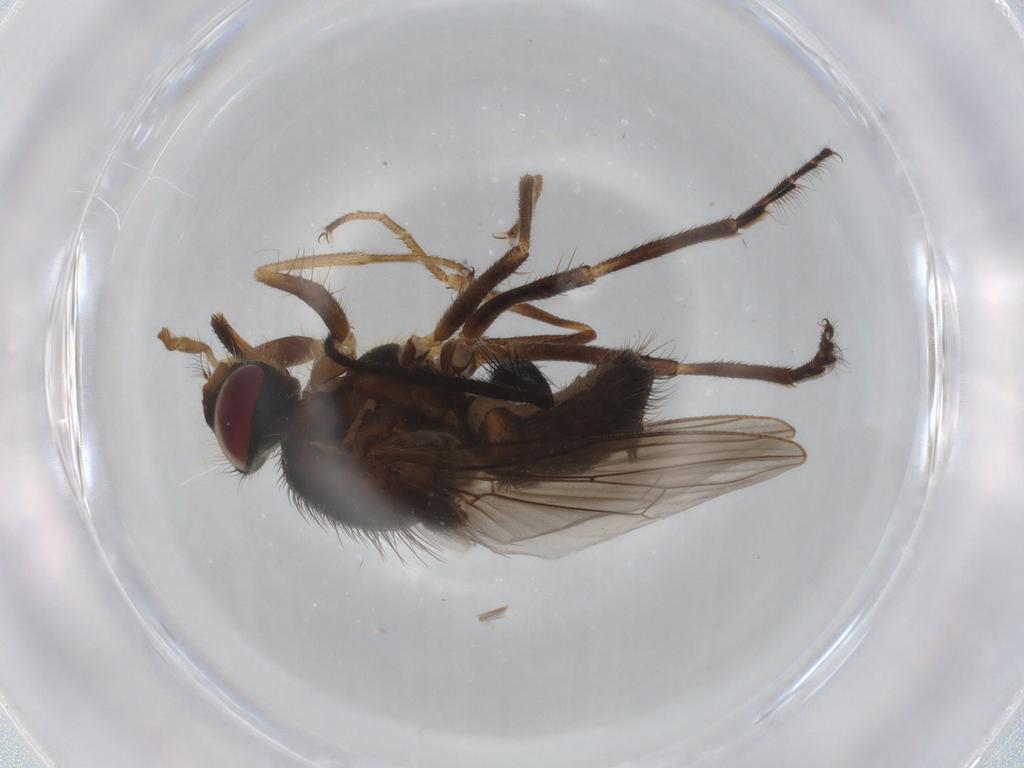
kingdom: Animalia
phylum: Arthropoda
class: Insecta
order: Diptera
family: Muscidae
